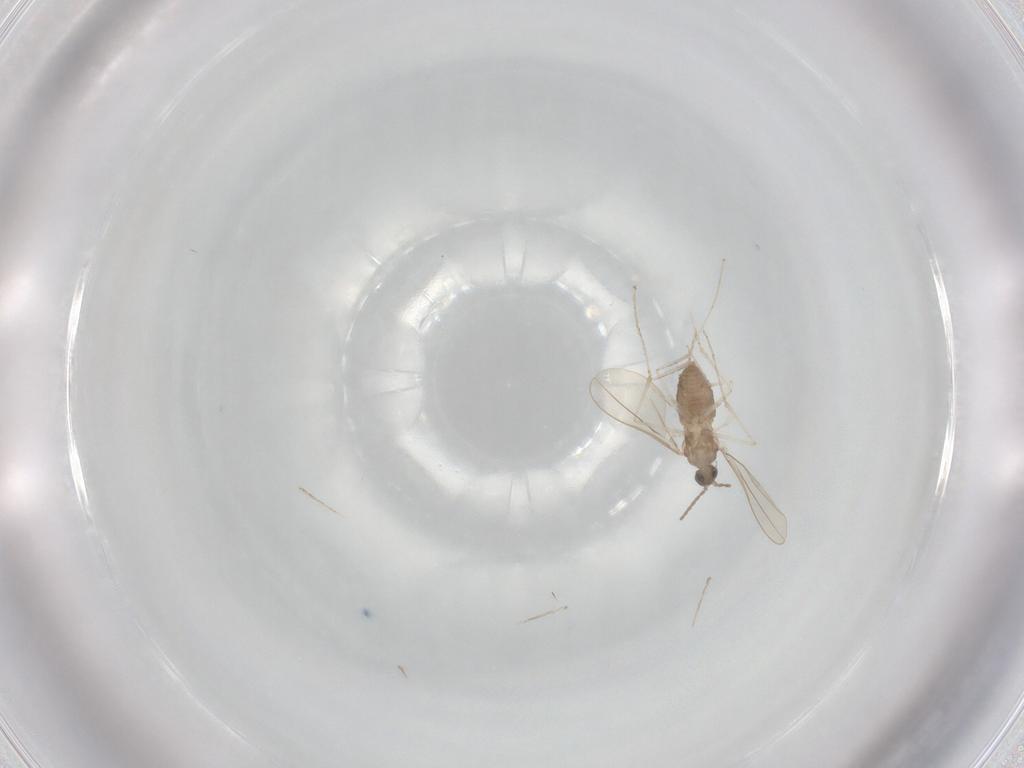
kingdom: Animalia
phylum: Arthropoda
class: Insecta
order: Diptera
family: Cecidomyiidae
